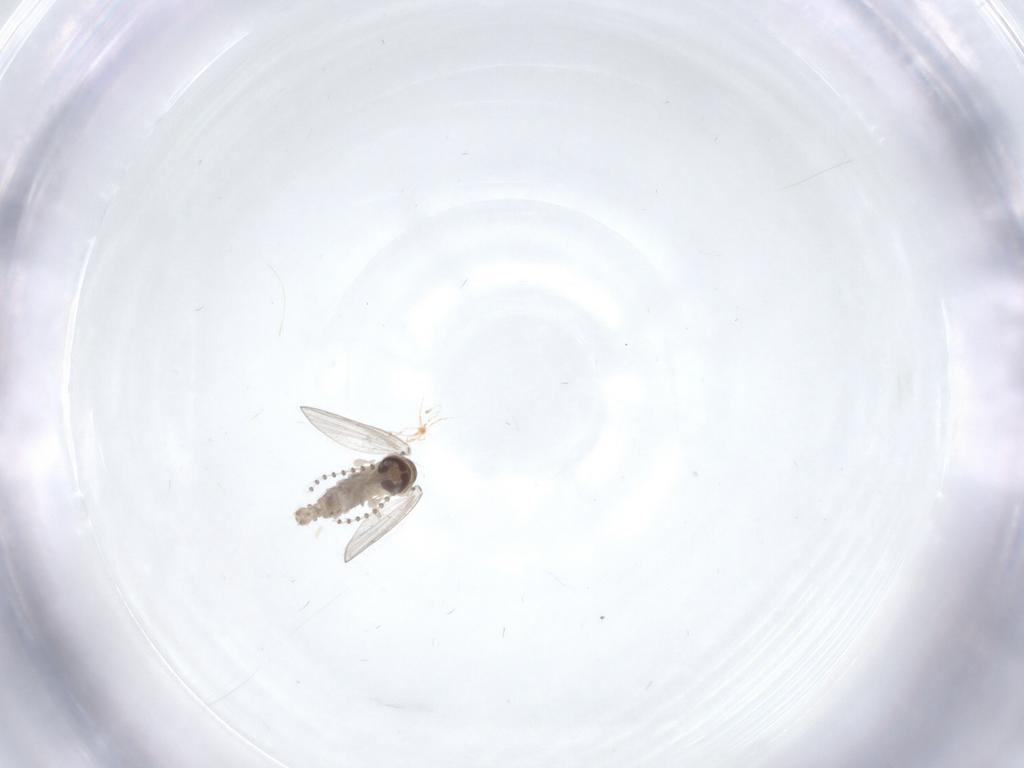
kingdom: Animalia
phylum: Arthropoda
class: Insecta
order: Diptera
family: Psychodidae
